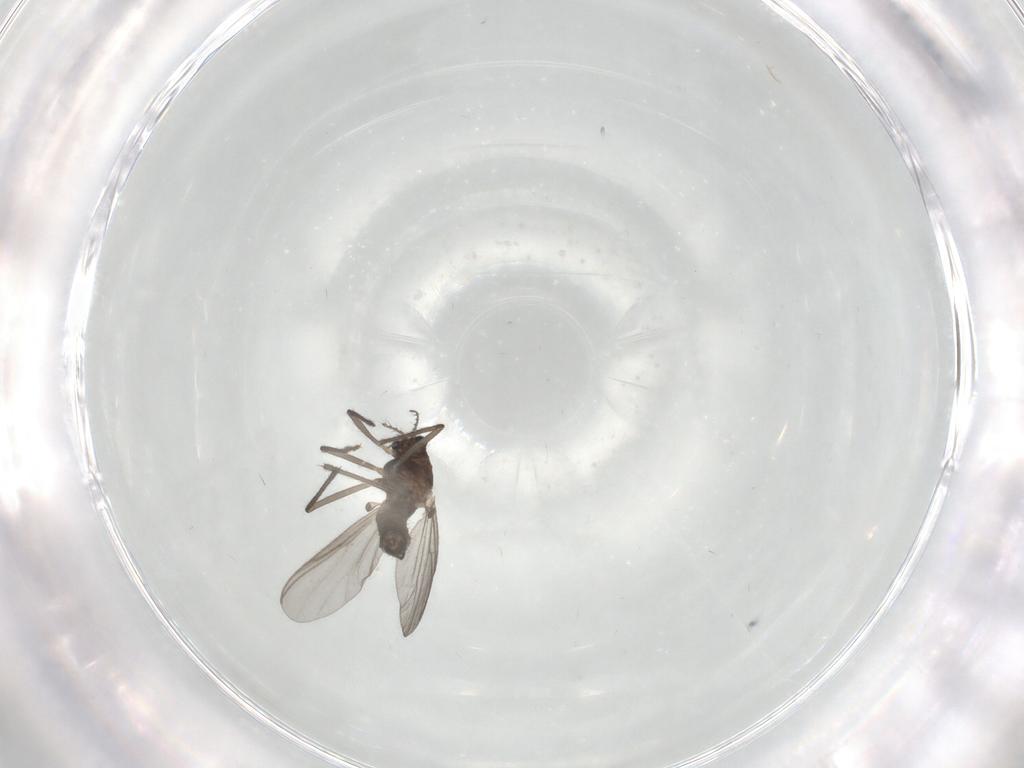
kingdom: Animalia
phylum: Arthropoda
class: Insecta
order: Diptera
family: Chironomidae
